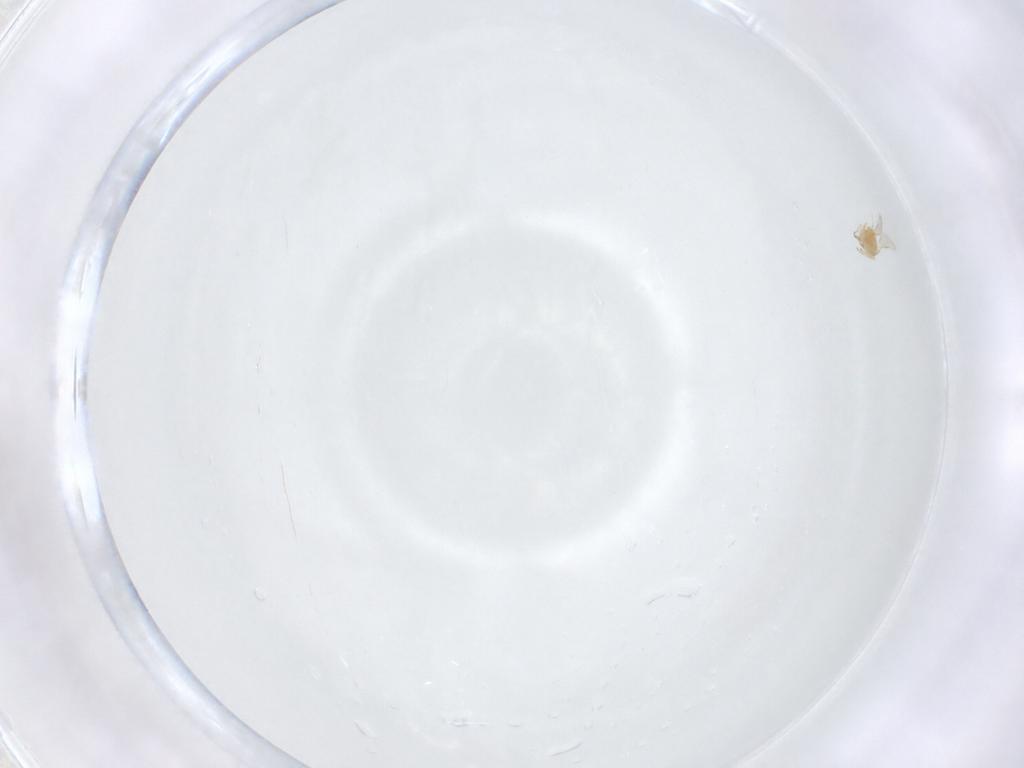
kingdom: Animalia
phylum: Arthropoda
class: Insecta
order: Hymenoptera
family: Aphelinidae
